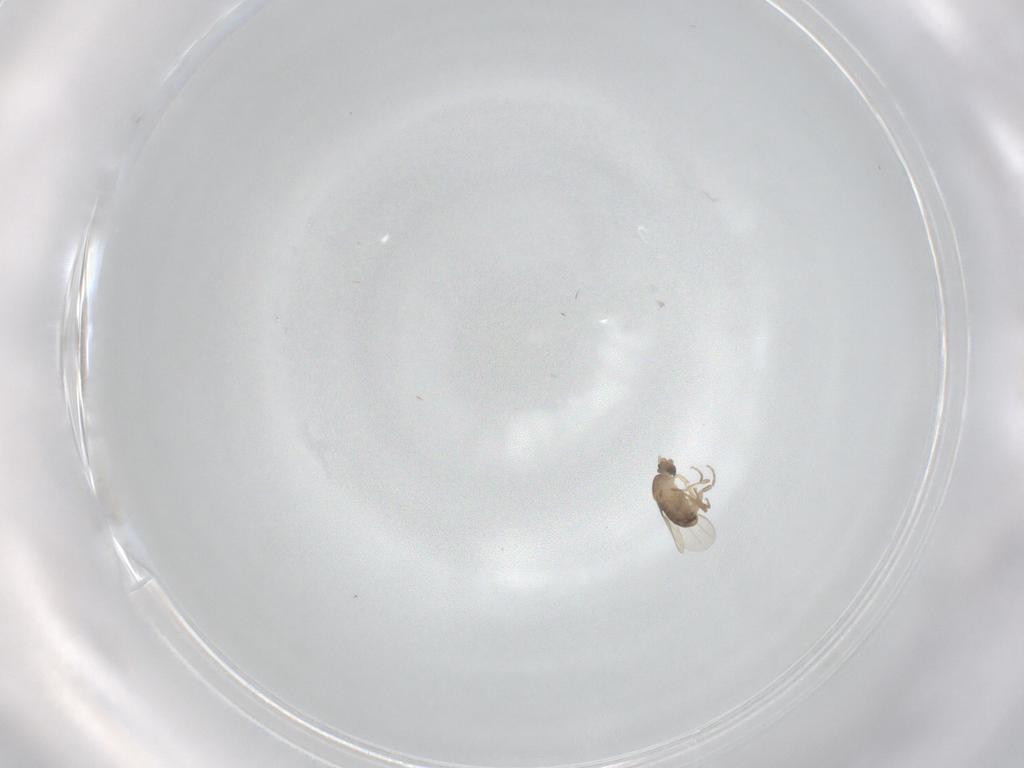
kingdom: Animalia
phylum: Arthropoda
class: Insecta
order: Diptera
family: Phoridae
